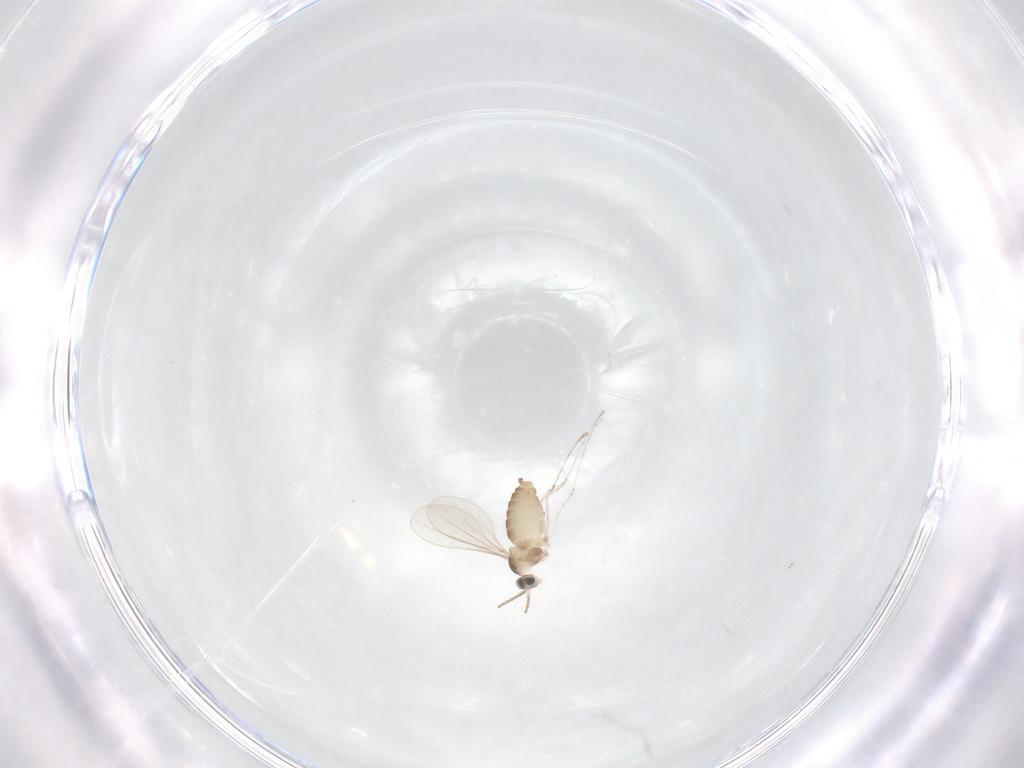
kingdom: Animalia
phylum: Arthropoda
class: Insecta
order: Diptera
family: Cecidomyiidae
